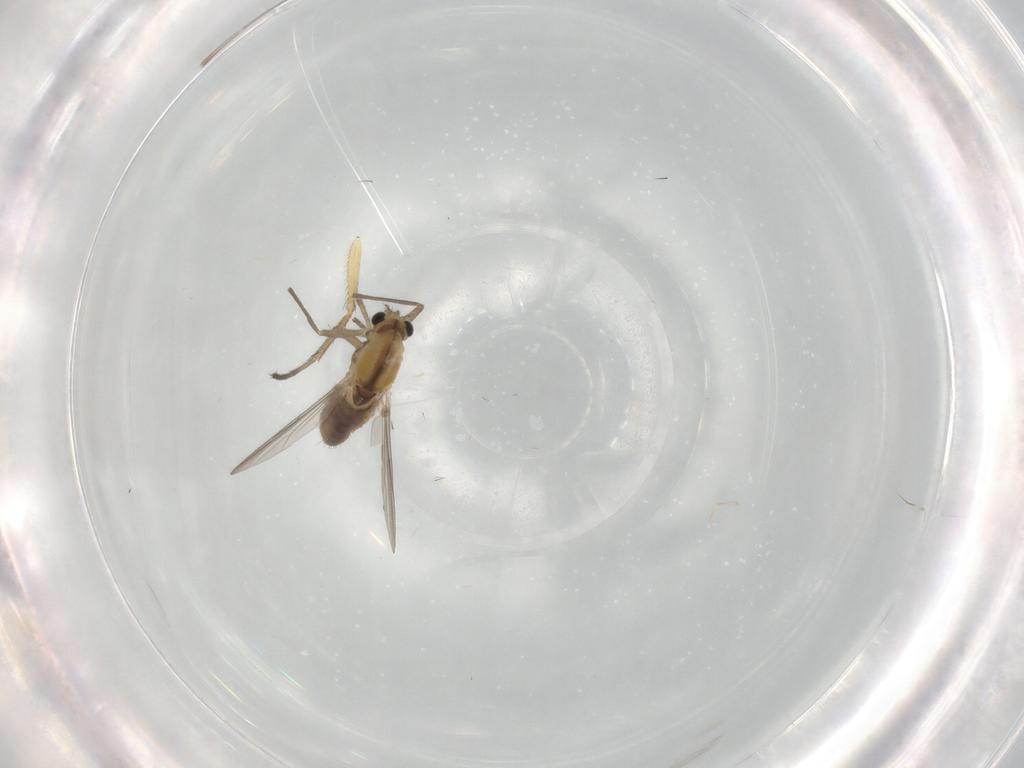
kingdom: Animalia
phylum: Arthropoda
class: Insecta
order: Diptera
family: Chironomidae
